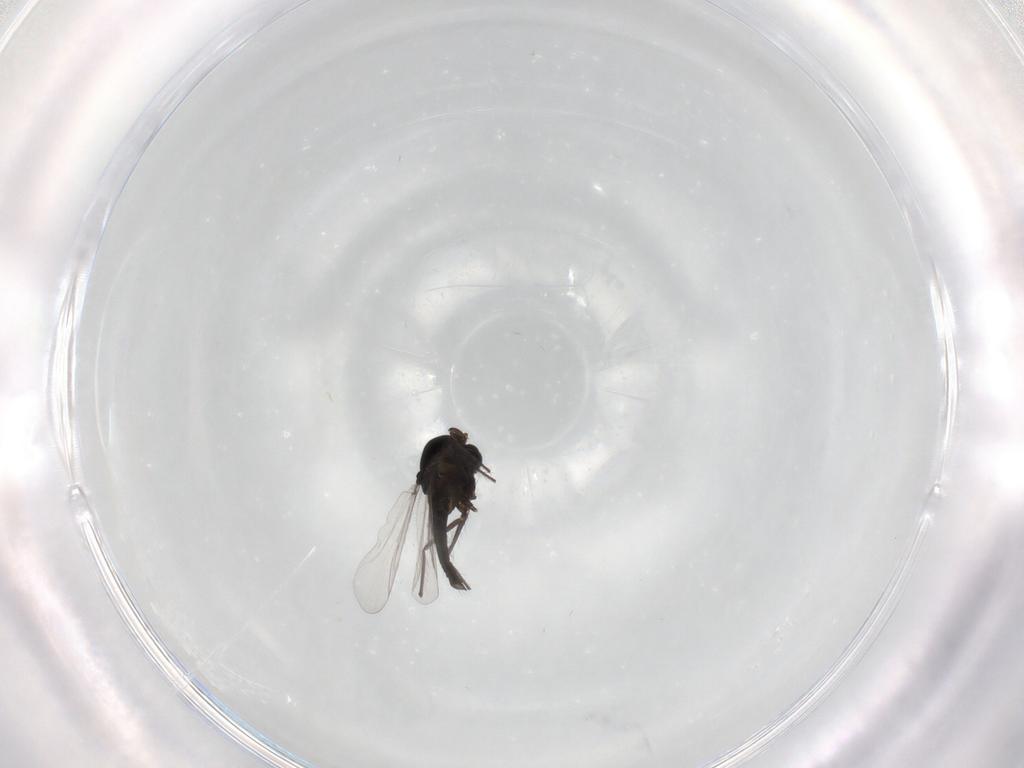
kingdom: Animalia
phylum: Arthropoda
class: Insecta
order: Diptera
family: Chironomidae
